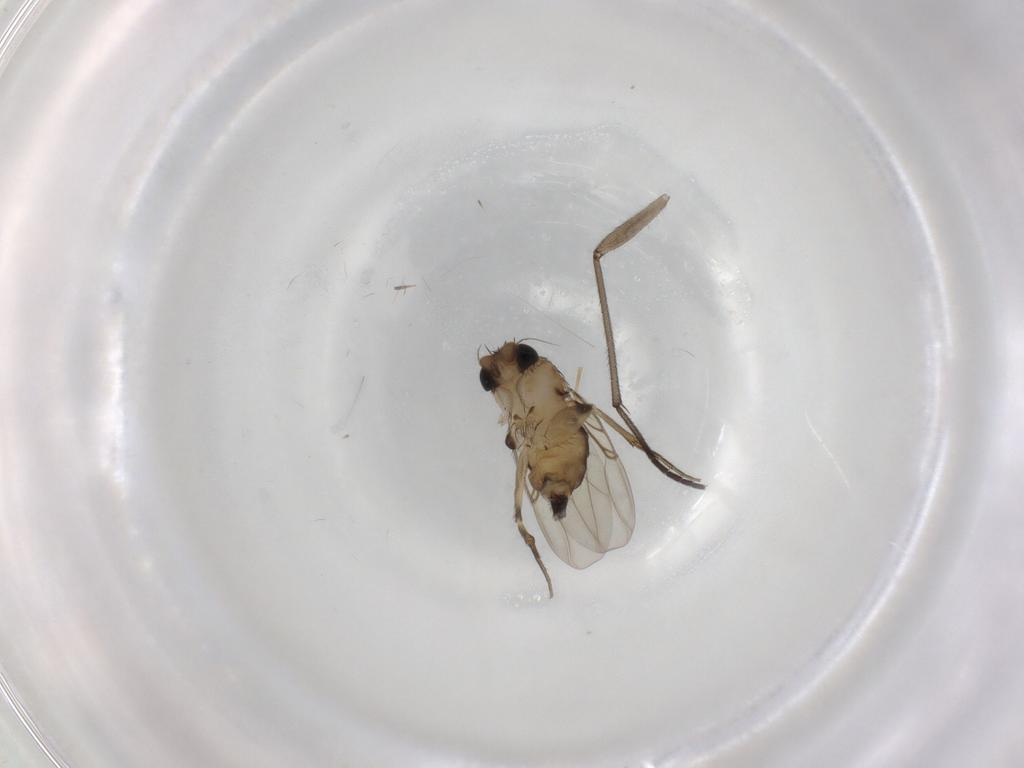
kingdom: Animalia
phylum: Arthropoda
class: Insecta
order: Diptera
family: Phoridae
